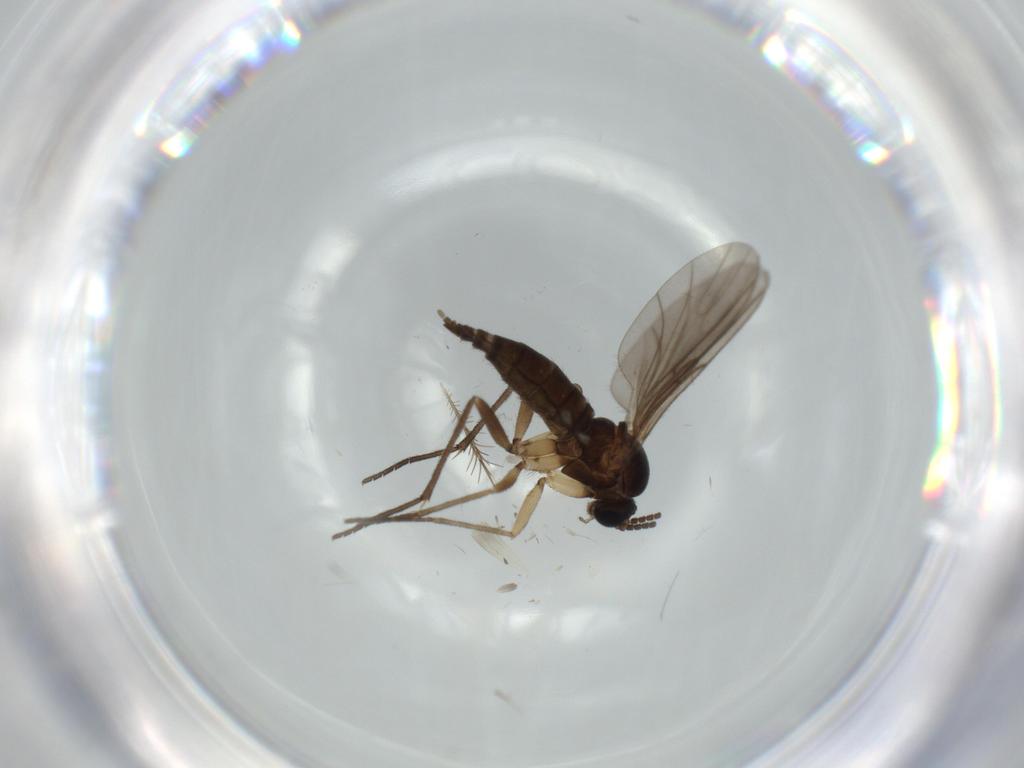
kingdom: Animalia
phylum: Arthropoda
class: Insecta
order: Diptera
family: Sciaridae
